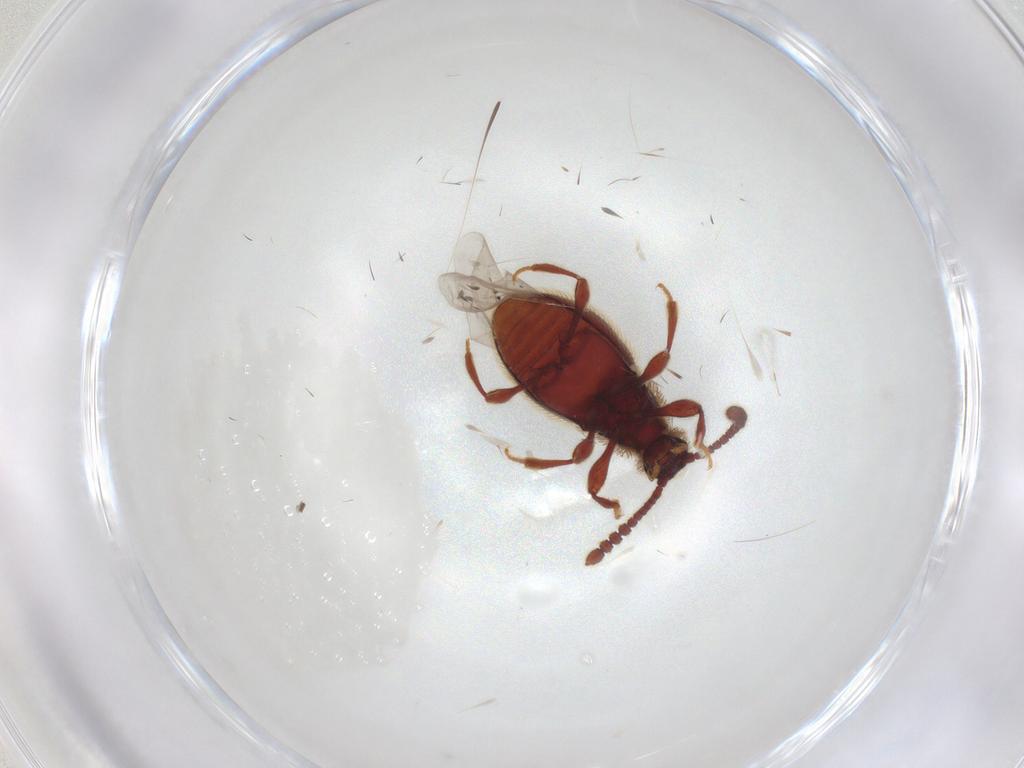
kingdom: Animalia
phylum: Arthropoda
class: Insecta
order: Coleoptera
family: Staphylinidae
